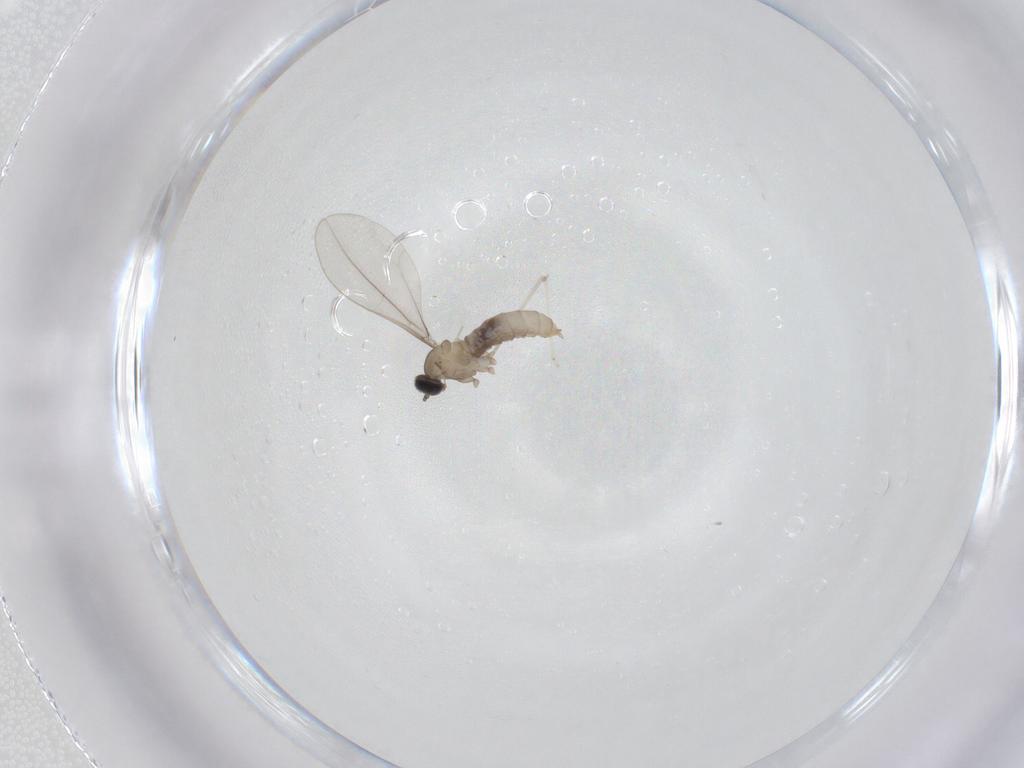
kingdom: Animalia
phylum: Arthropoda
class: Insecta
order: Diptera
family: Cecidomyiidae
